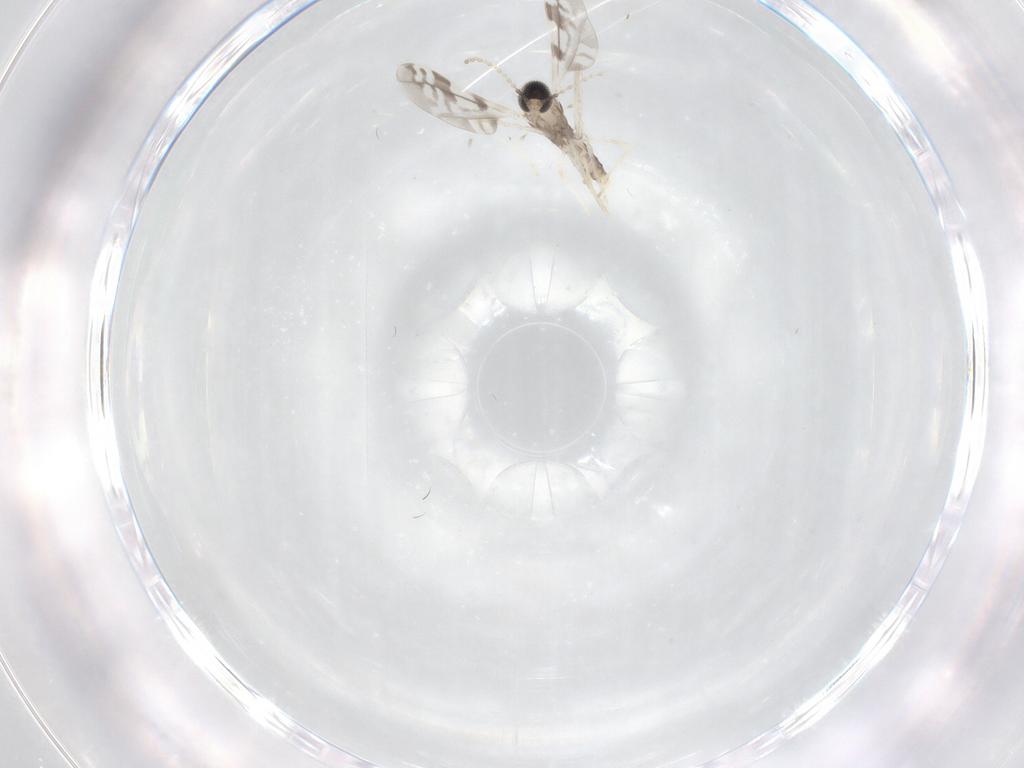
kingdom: Animalia
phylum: Arthropoda
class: Insecta
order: Diptera
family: Cecidomyiidae
